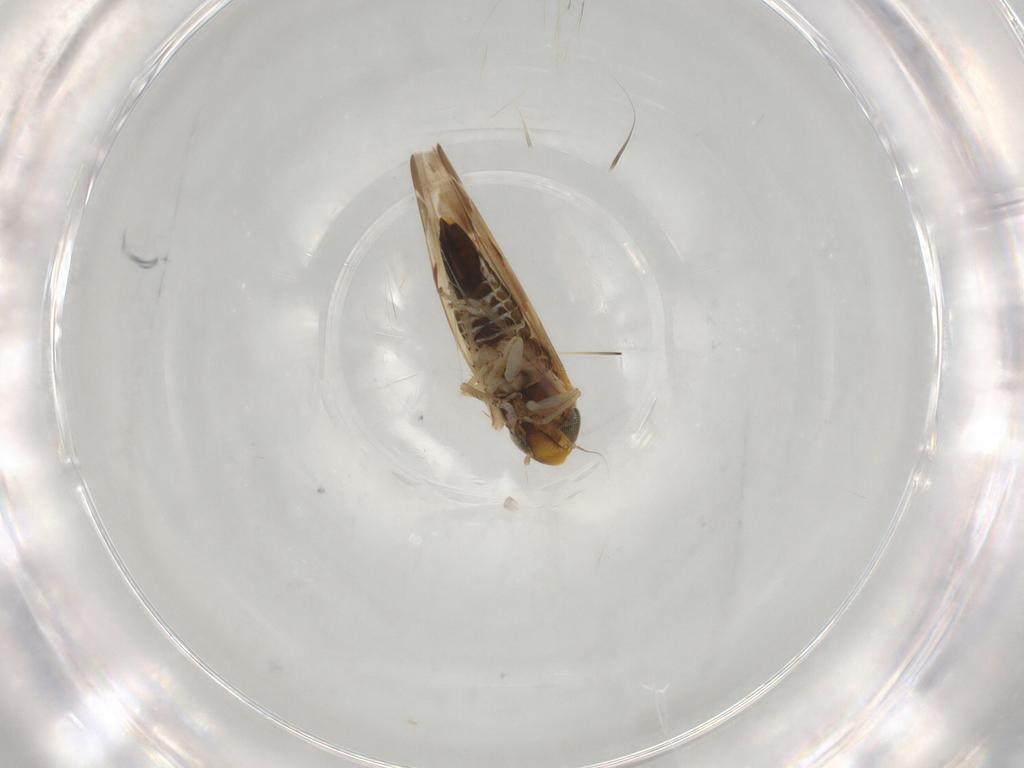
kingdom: Animalia
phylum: Arthropoda
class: Insecta
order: Hemiptera
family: Cicadellidae
